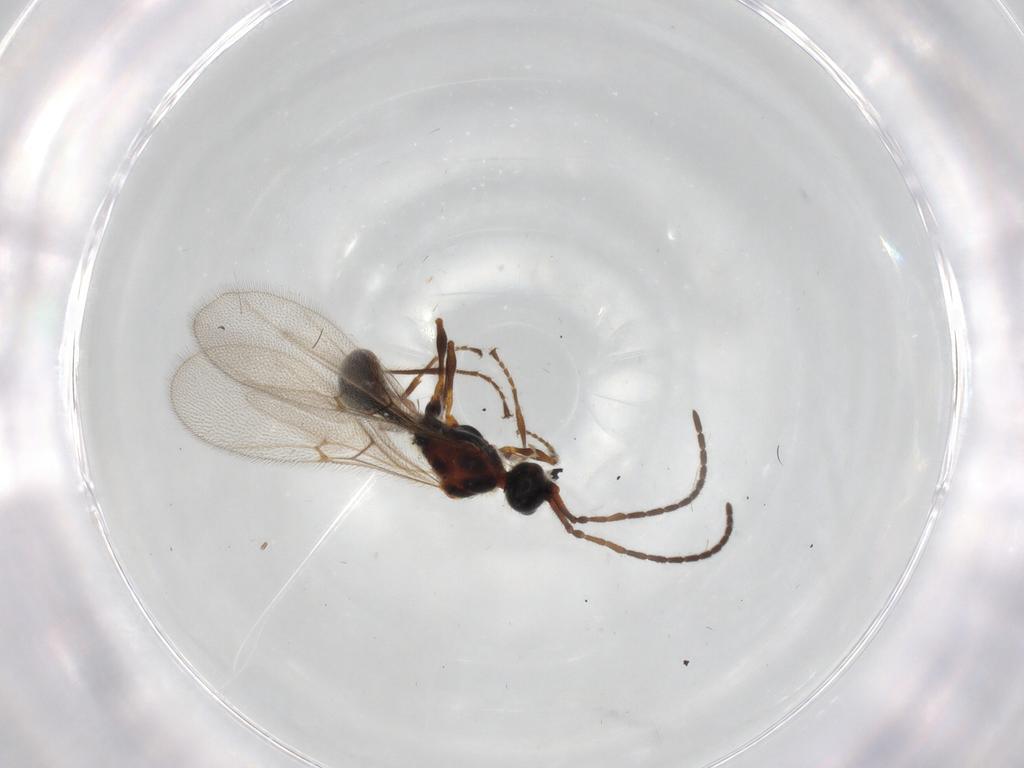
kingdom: Animalia
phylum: Arthropoda
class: Insecta
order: Hymenoptera
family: Diapriidae
